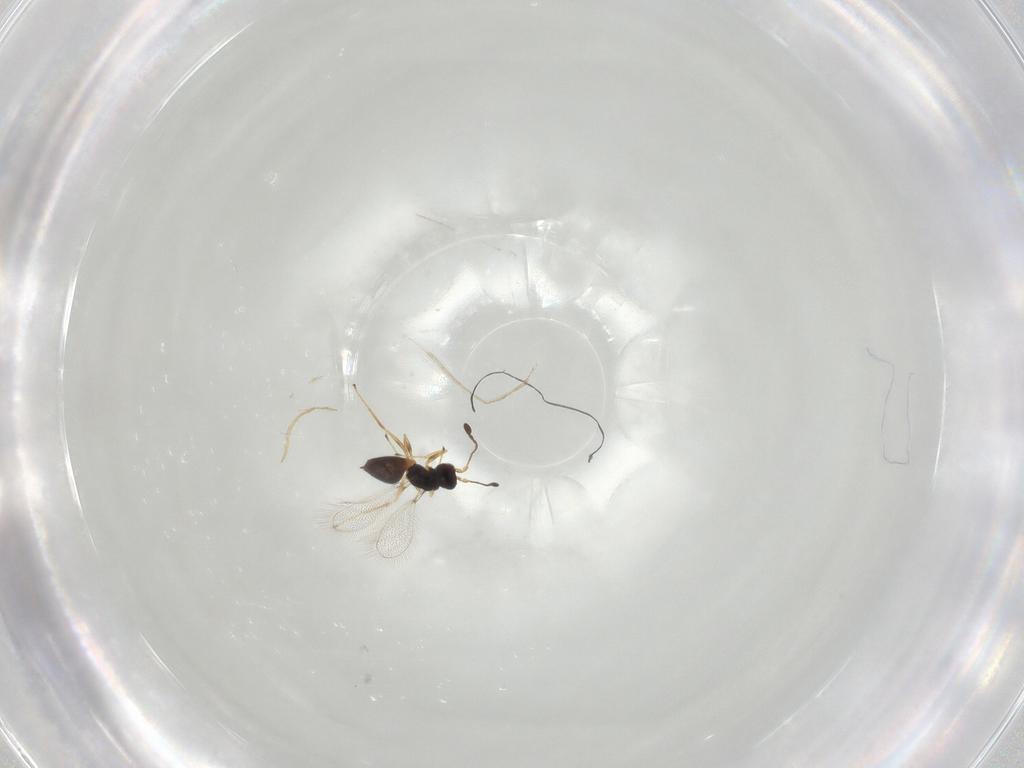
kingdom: Animalia
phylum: Arthropoda
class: Insecta
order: Hymenoptera
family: Mymaridae
